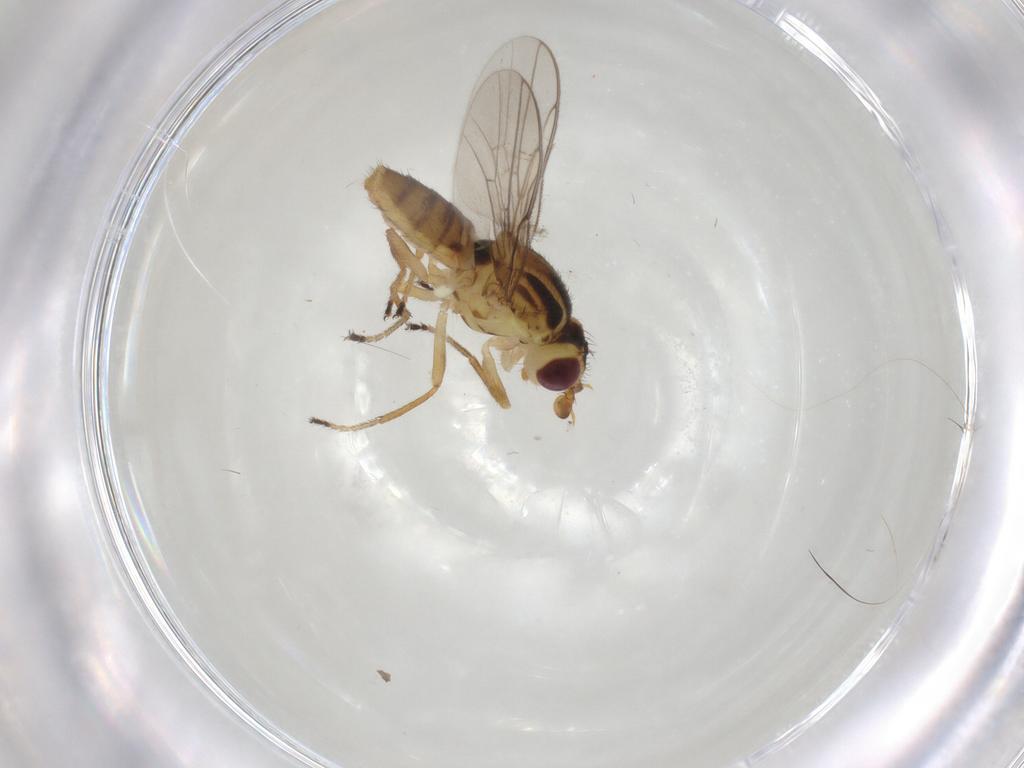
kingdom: Animalia
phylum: Arthropoda
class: Insecta
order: Diptera
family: Chloropidae
